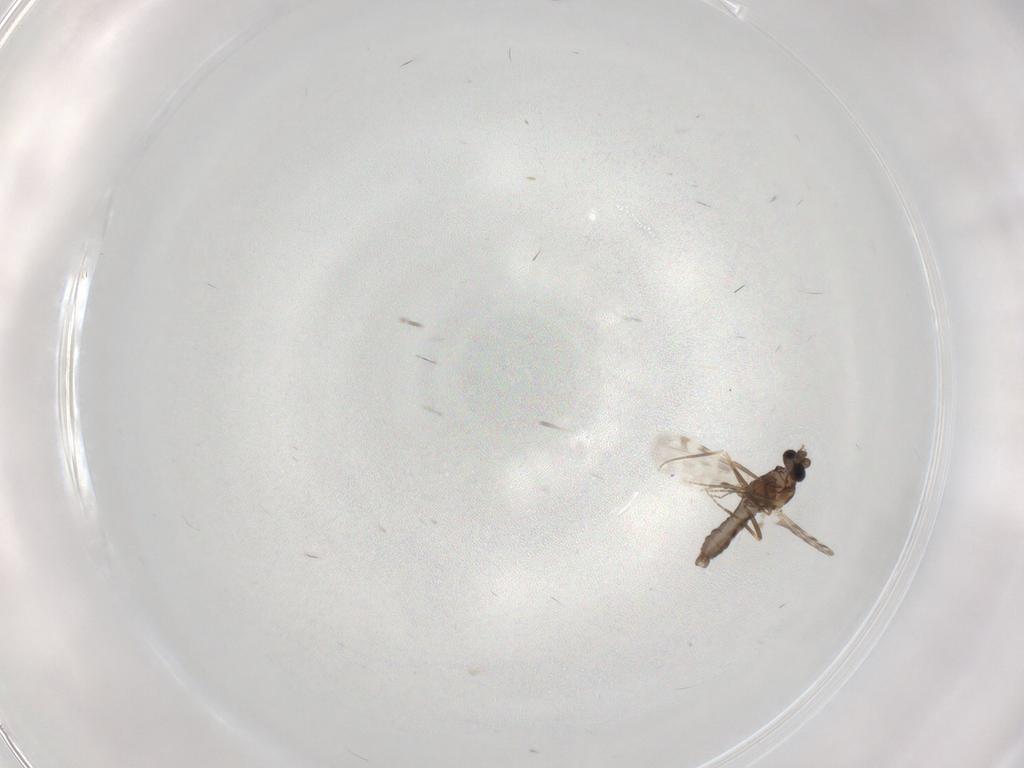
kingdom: Animalia
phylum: Arthropoda
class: Insecta
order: Diptera
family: Ceratopogonidae
